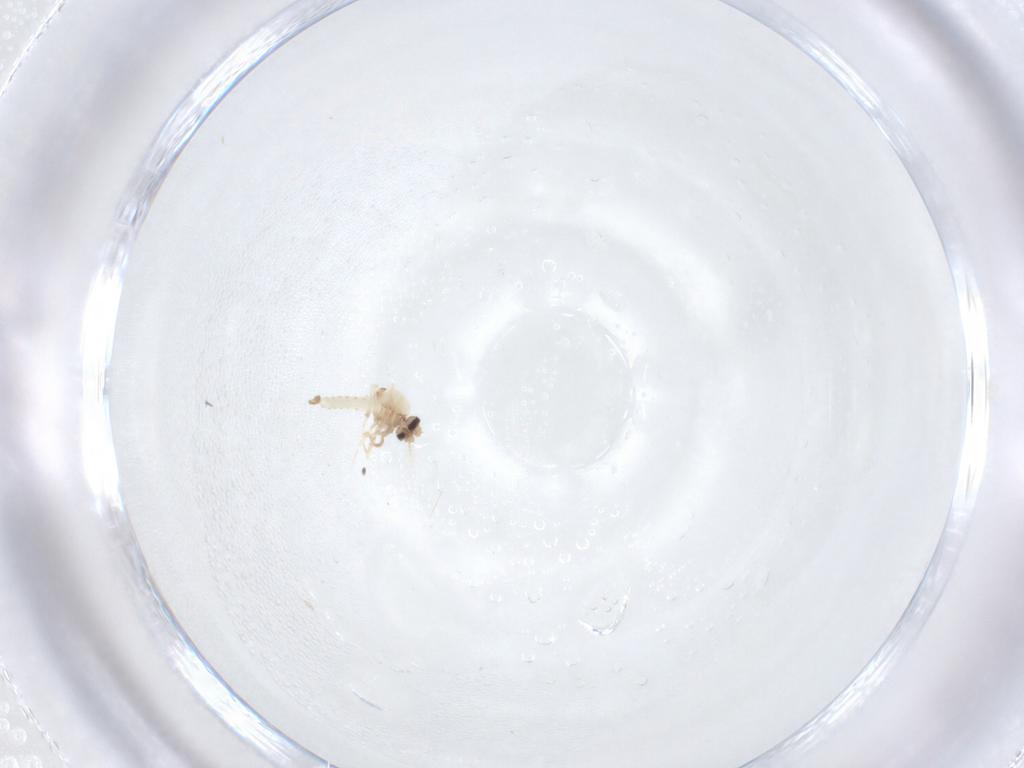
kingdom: Animalia
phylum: Arthropoda
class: Insecta
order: Diptera
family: Ceratopogonidae
